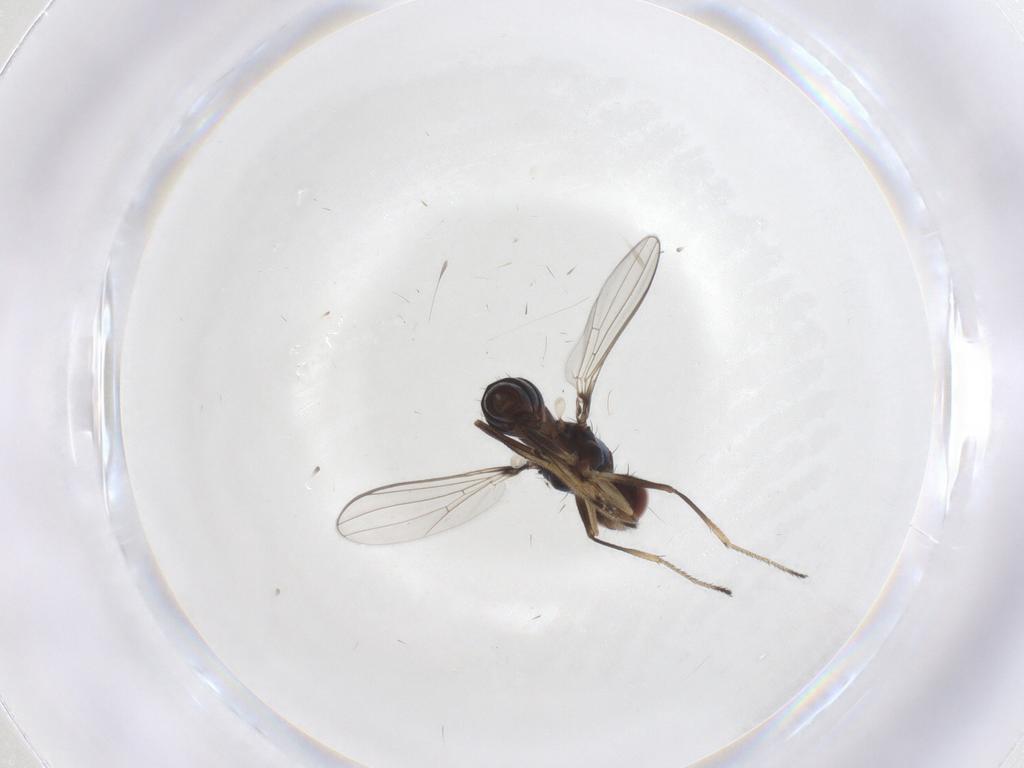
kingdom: Animalia
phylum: Arthropoda
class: Insecta
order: Diptera
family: Sepsidae
